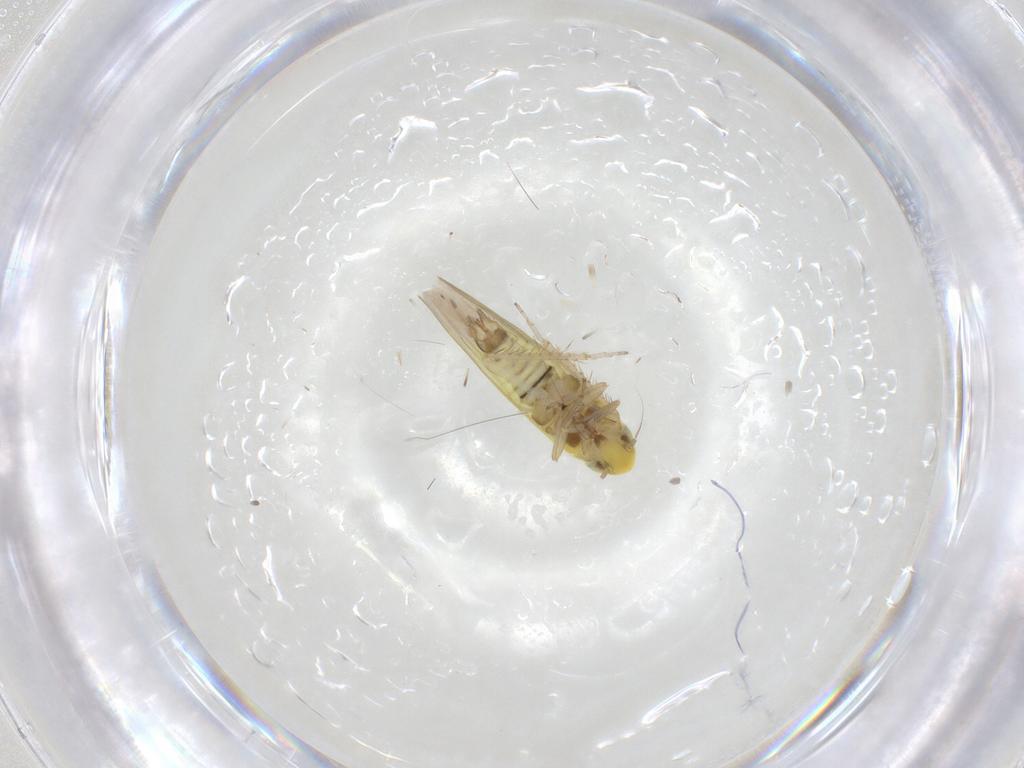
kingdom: Animalia
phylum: Arthropoda
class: Insecta
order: Hemiptera
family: Cicadellidae
